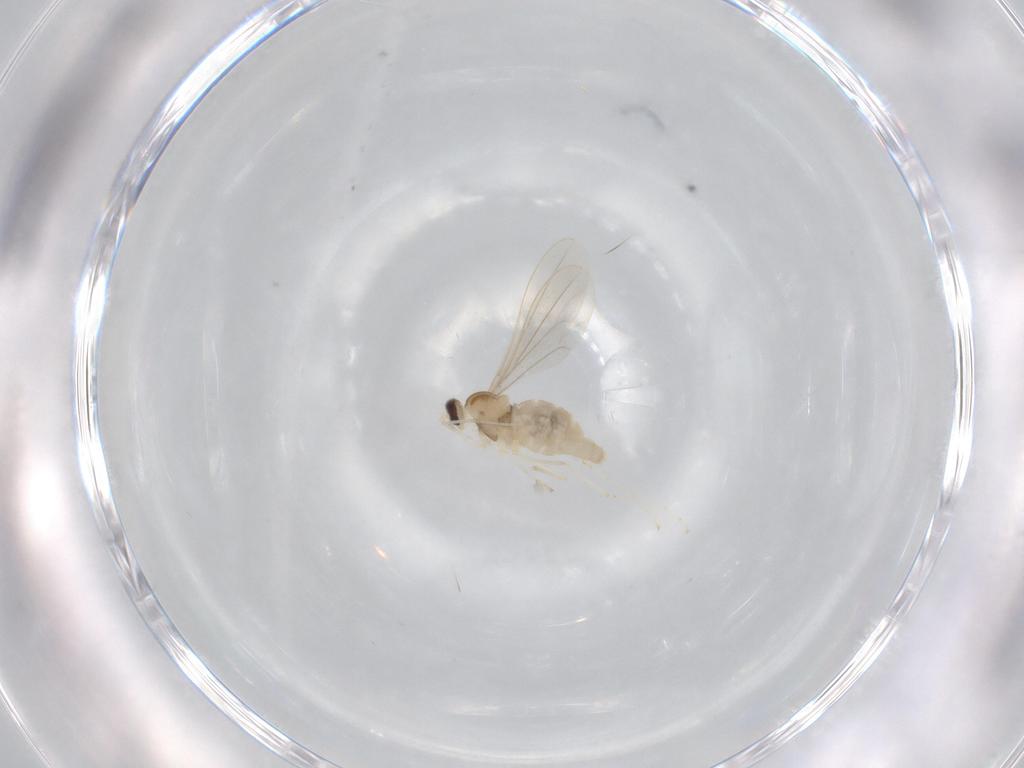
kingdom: Animalia
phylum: Arthropoda
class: Insecta
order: Diptera
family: Cecidomyiidae
